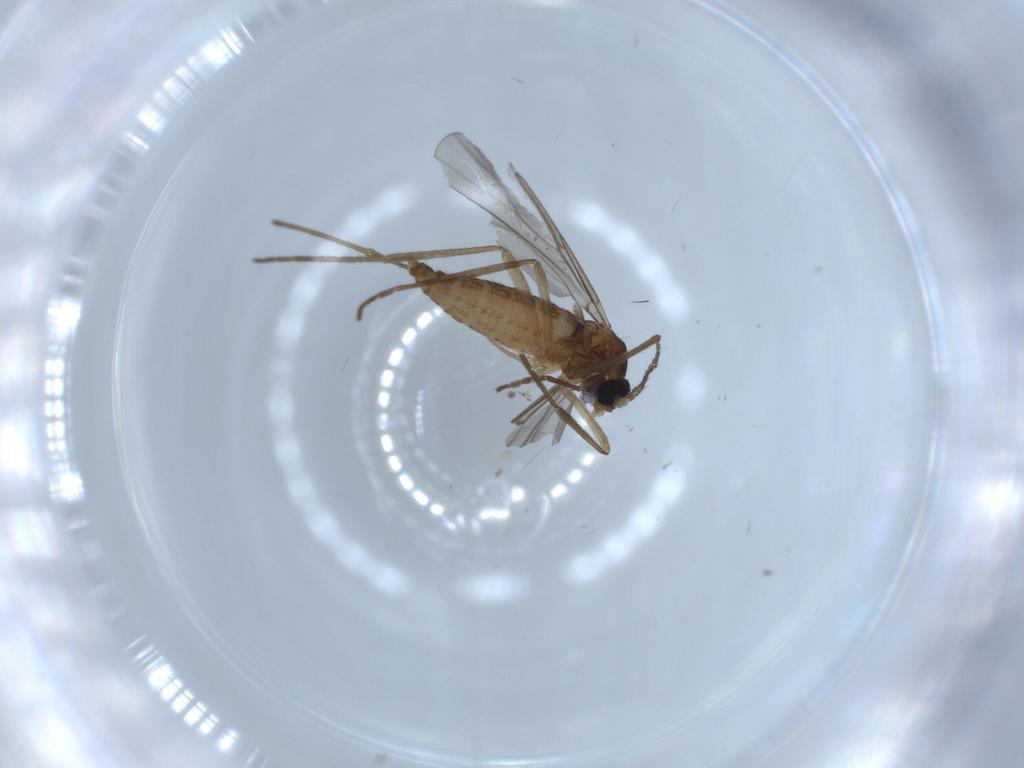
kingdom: Animalia
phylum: Arthropoda
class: Insecta
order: Diptera
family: Cecidomyiidae
